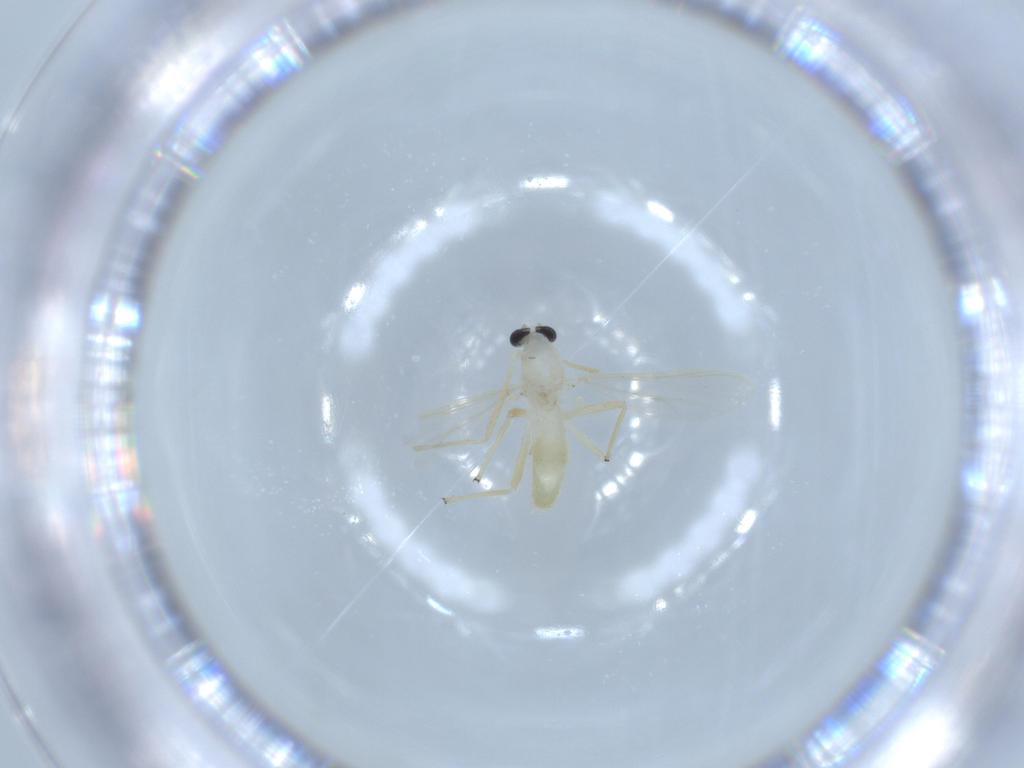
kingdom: Animalia
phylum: Arthropoda
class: Insecta
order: Diptera
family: Chironomidae
